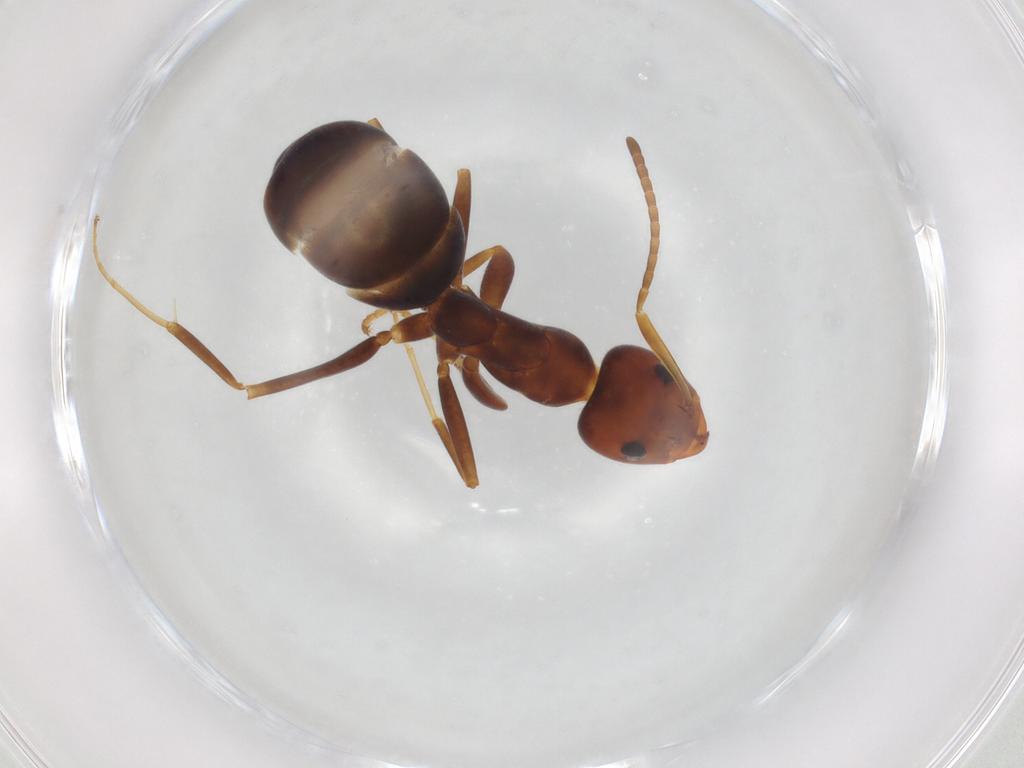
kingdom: Animalia
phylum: Arthropoda
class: Insecta
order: Hymenoptera
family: Formicidae
